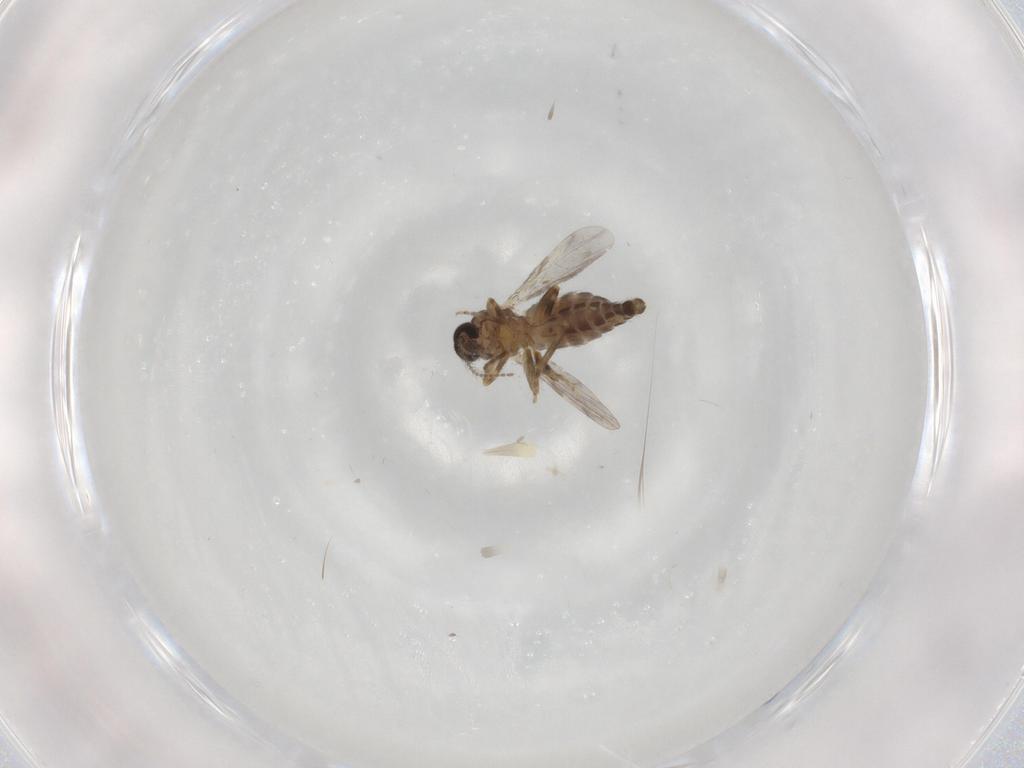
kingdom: Animalia
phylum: Arthropoda
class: Insecta
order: Diptera
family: Ceratopogonidae
